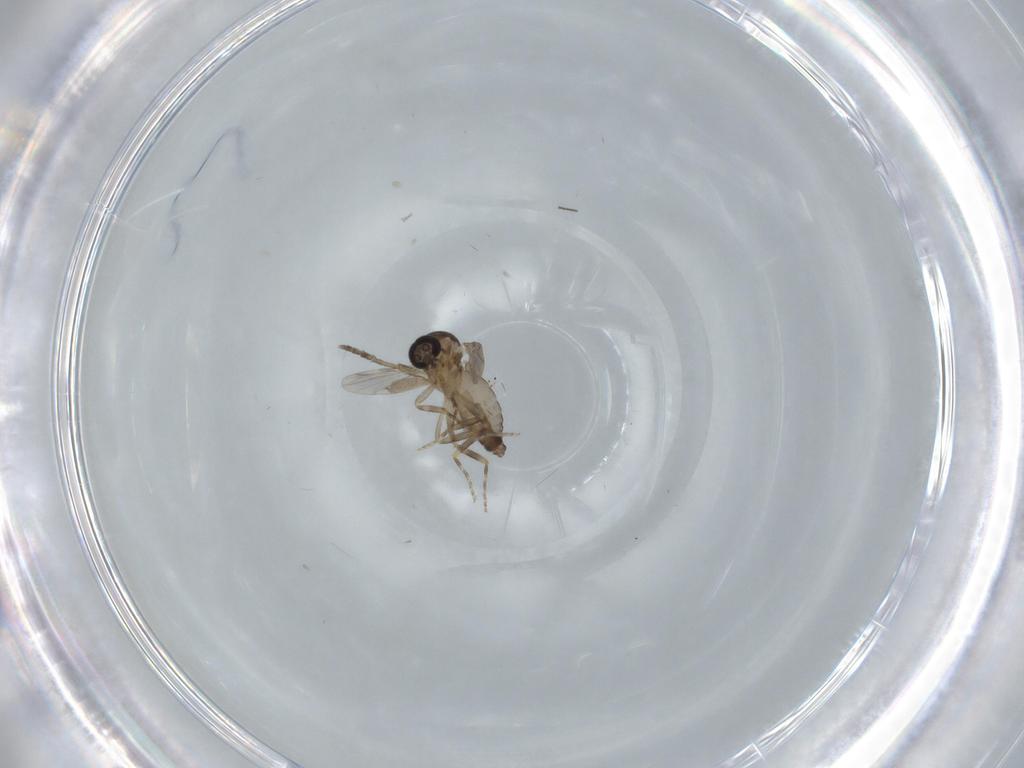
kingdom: Animalia
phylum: Arthropoda
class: Insecta
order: Diptera
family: Ceratopogonidae
